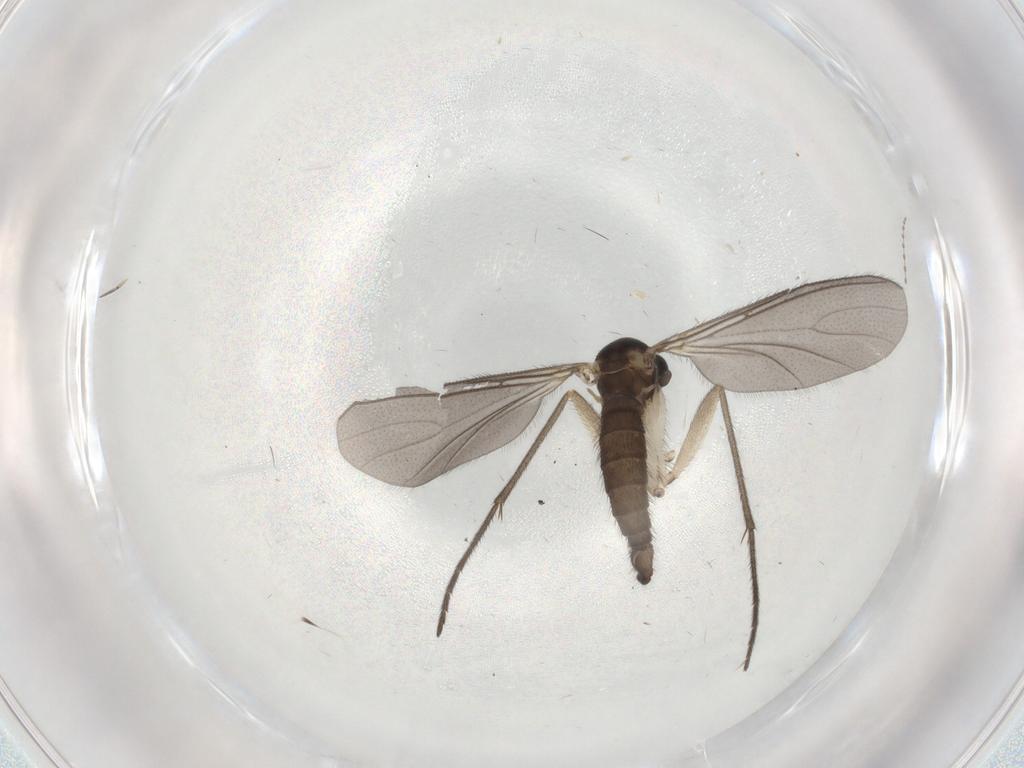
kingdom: Animalia
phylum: Arthropoda
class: Insecta
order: Diptera
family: Sciaridae
